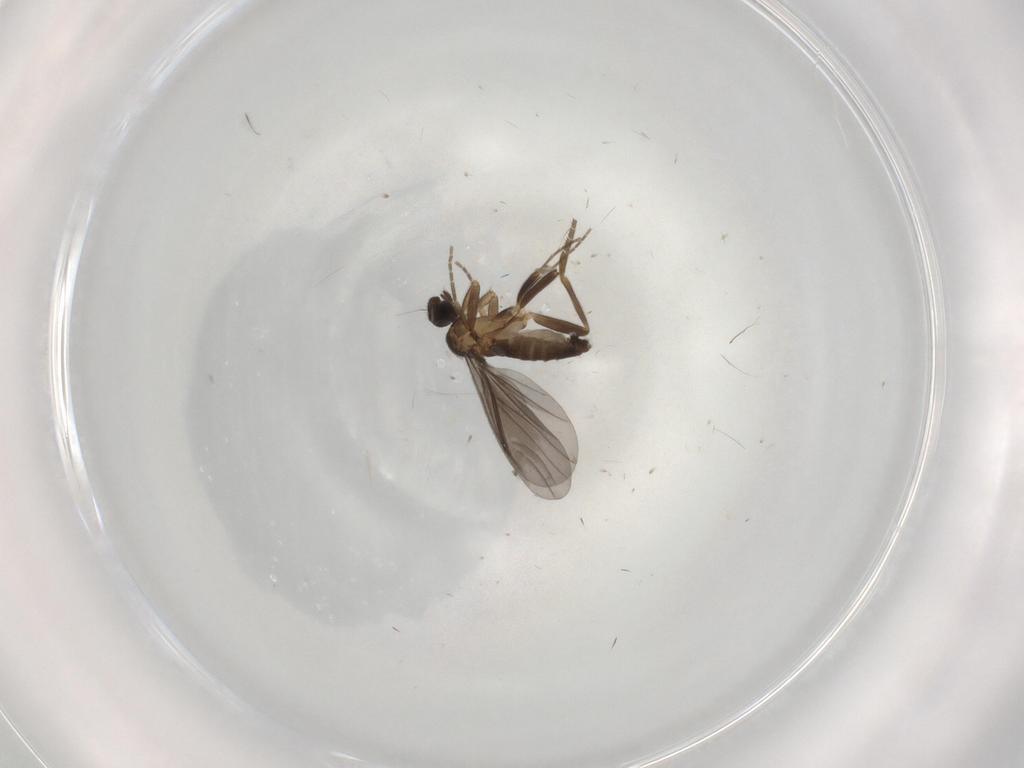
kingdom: Animalia
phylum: Arthropoda
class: Insecta
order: Diptera
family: Phoridae
